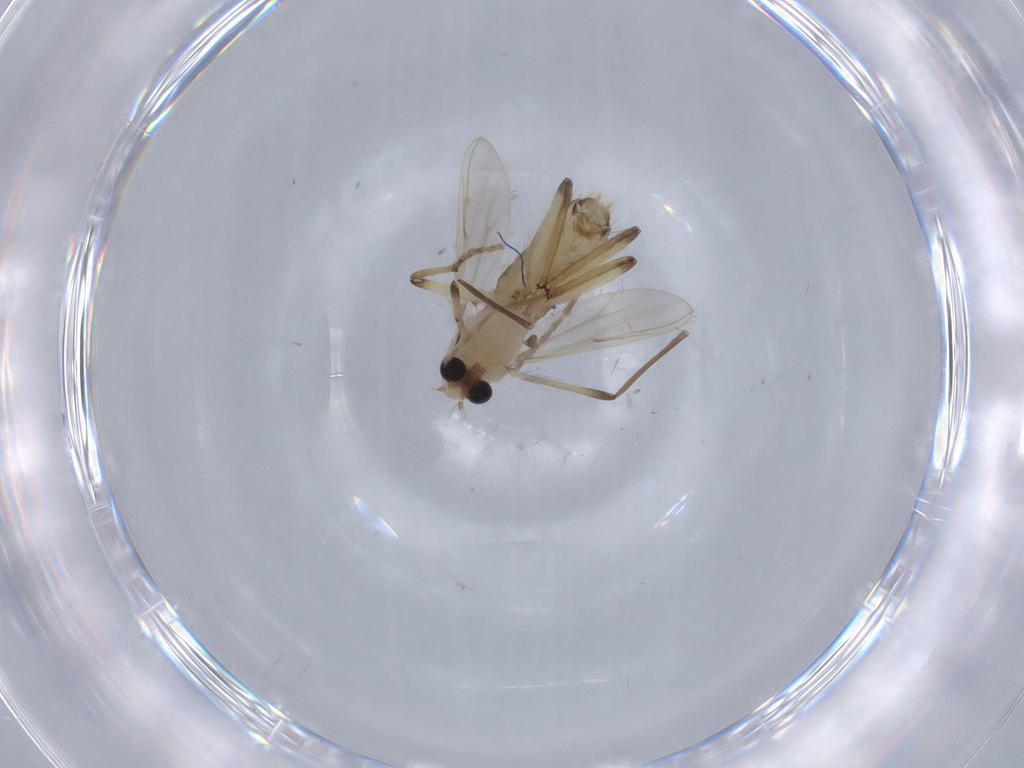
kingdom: Animalia
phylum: Arthropoda
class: Insecta
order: Diptera
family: Chironomidae
